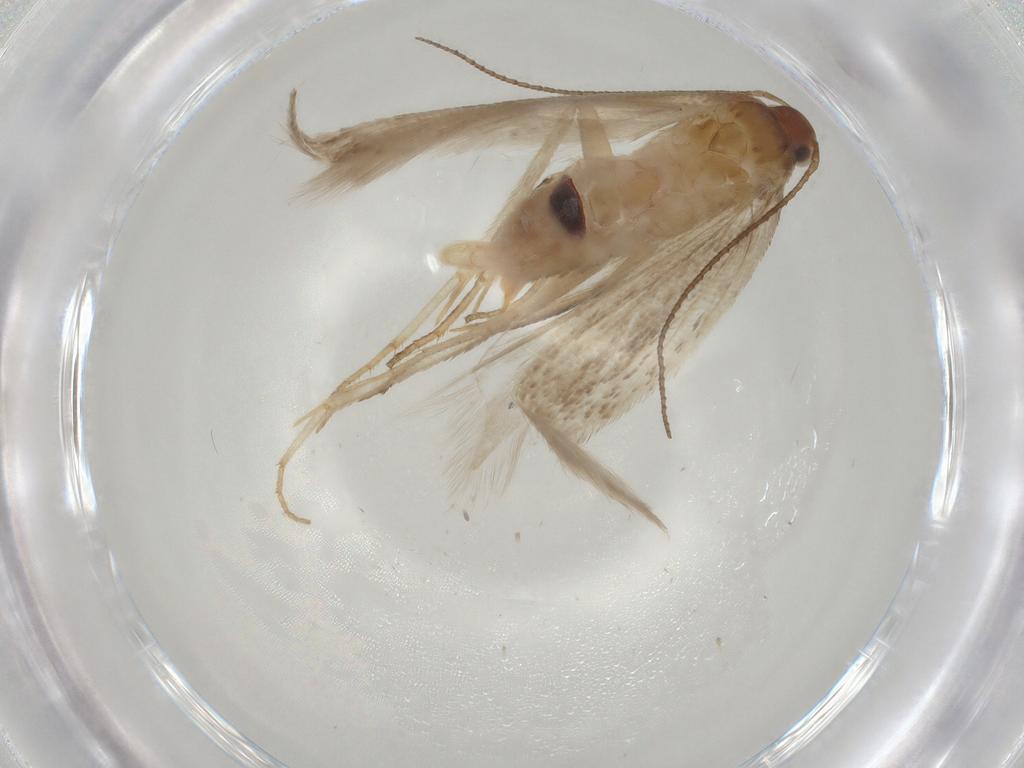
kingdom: Animalia
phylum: Arthropoda
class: Insecta
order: Lepidoptera
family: Gelechiidae
